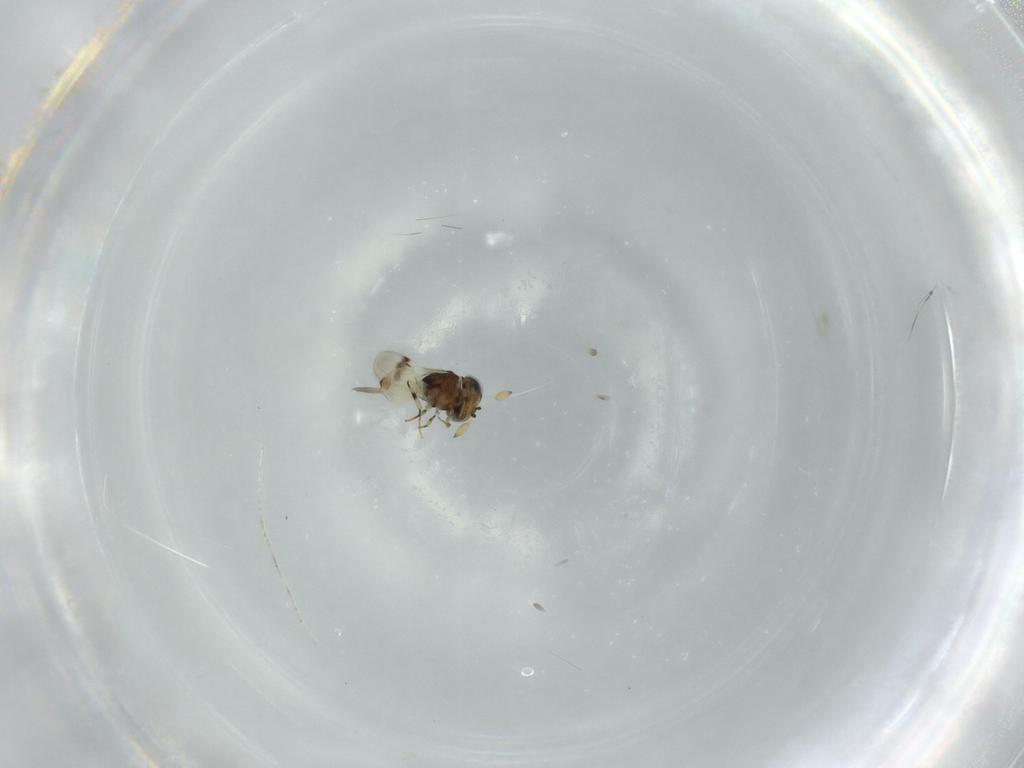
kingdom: Animalia
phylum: Arthropoda
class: Insecta
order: Hymenoptera
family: Scelionidae
